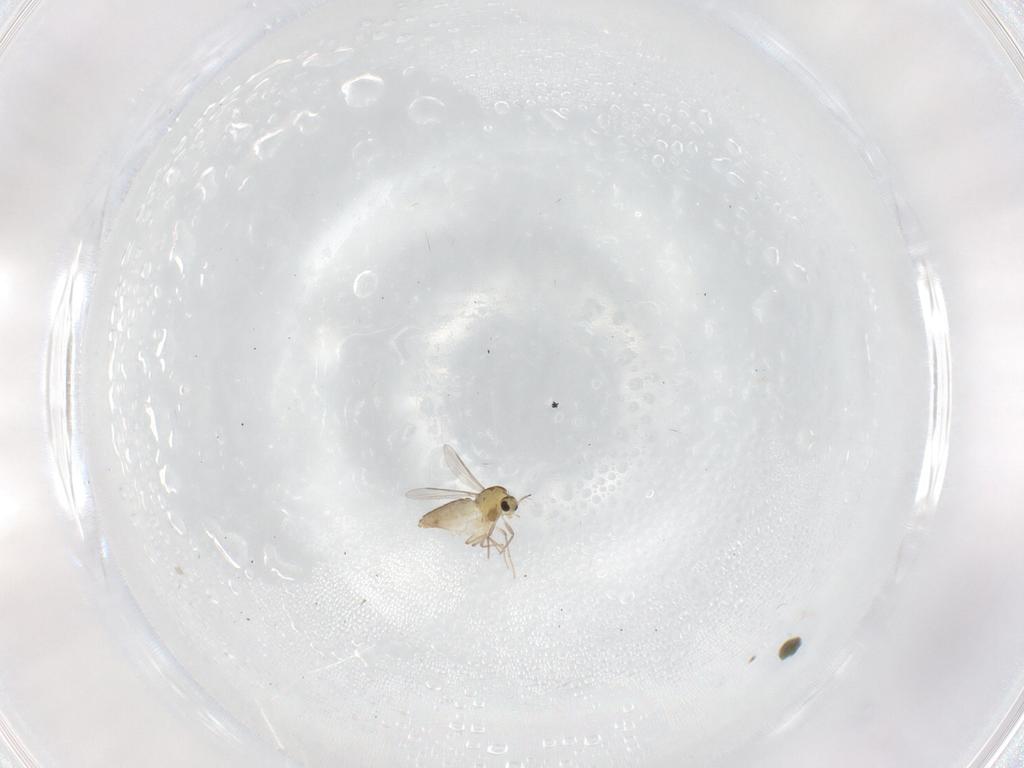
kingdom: Animalia
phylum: Arthropoda
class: Insecta
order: Diptera
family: Chironomidae
